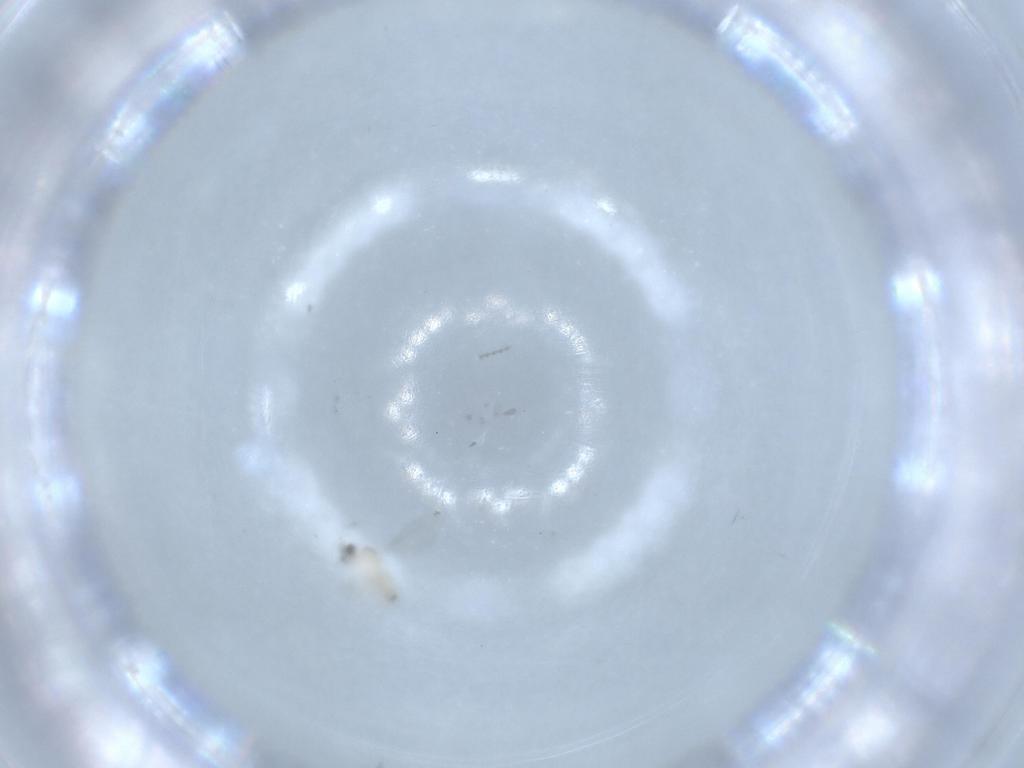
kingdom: Animalia
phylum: Arthropoda
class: Insecta
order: Diptera
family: Cecidomyiidae
